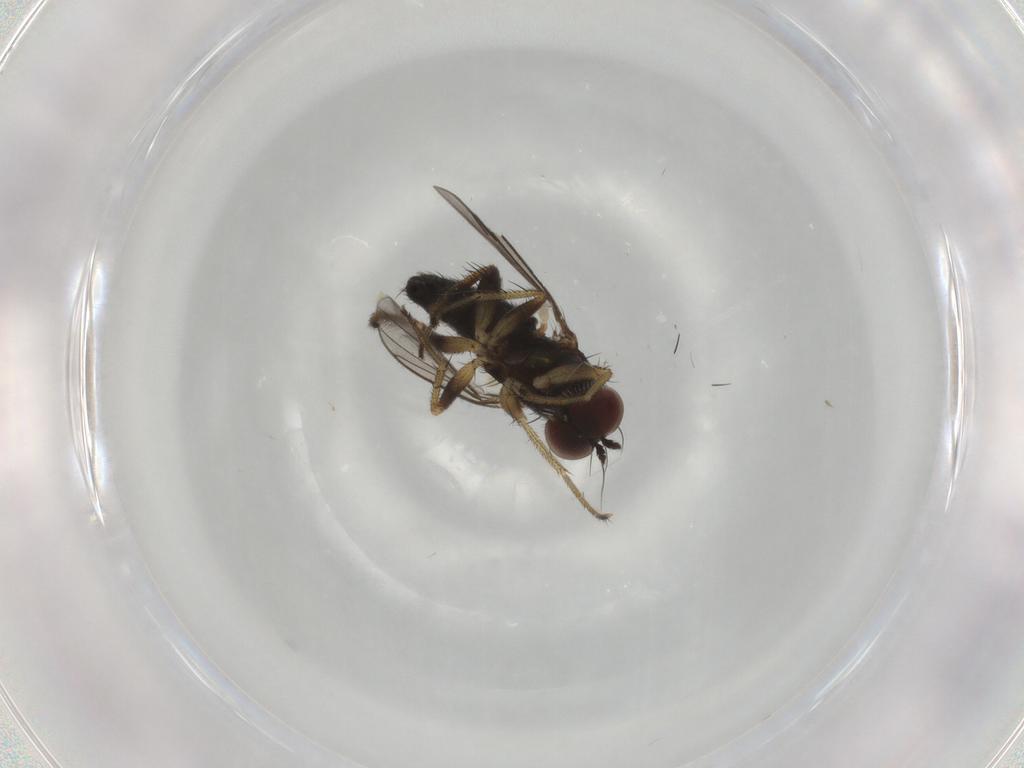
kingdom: Animalia
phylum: Arthropoda
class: Insecta
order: Diptera
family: Dolichopodidae
